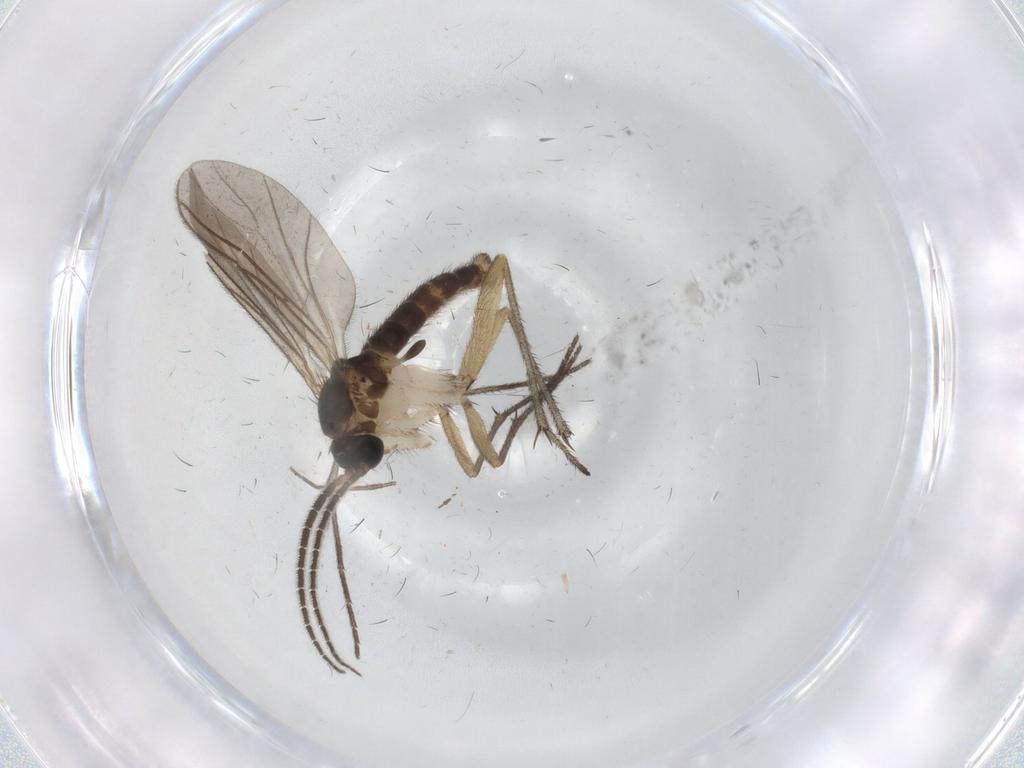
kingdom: Animalia
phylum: Arthropoda
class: Insecta
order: Diptera
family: Sciaridae
